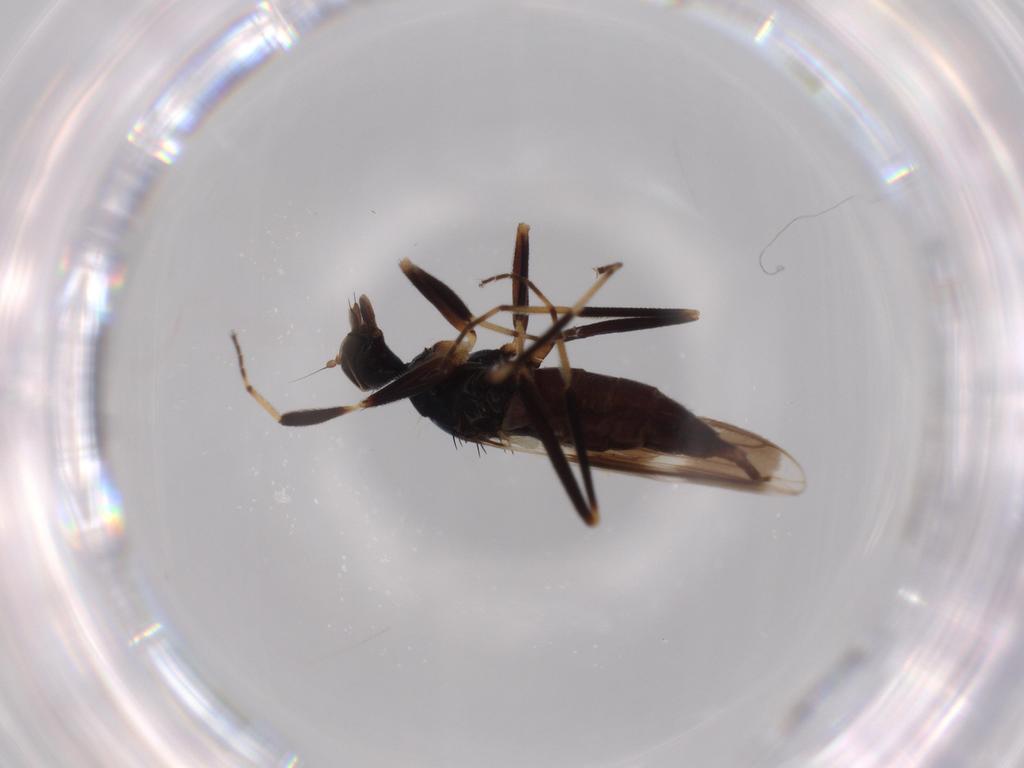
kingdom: Animalia
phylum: Arthropoda
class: Insecta
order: Diptera
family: Hybotidae
